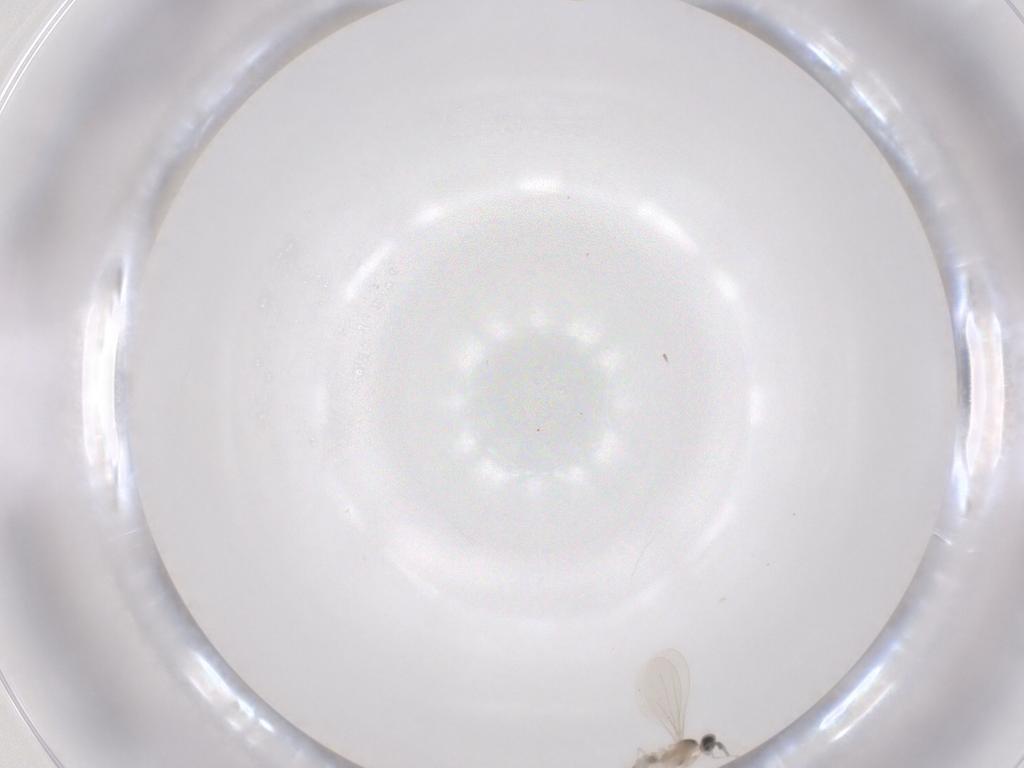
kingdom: Animalia
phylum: Arthropoda
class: Insecta
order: Diptera
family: Cecidomyiidae
